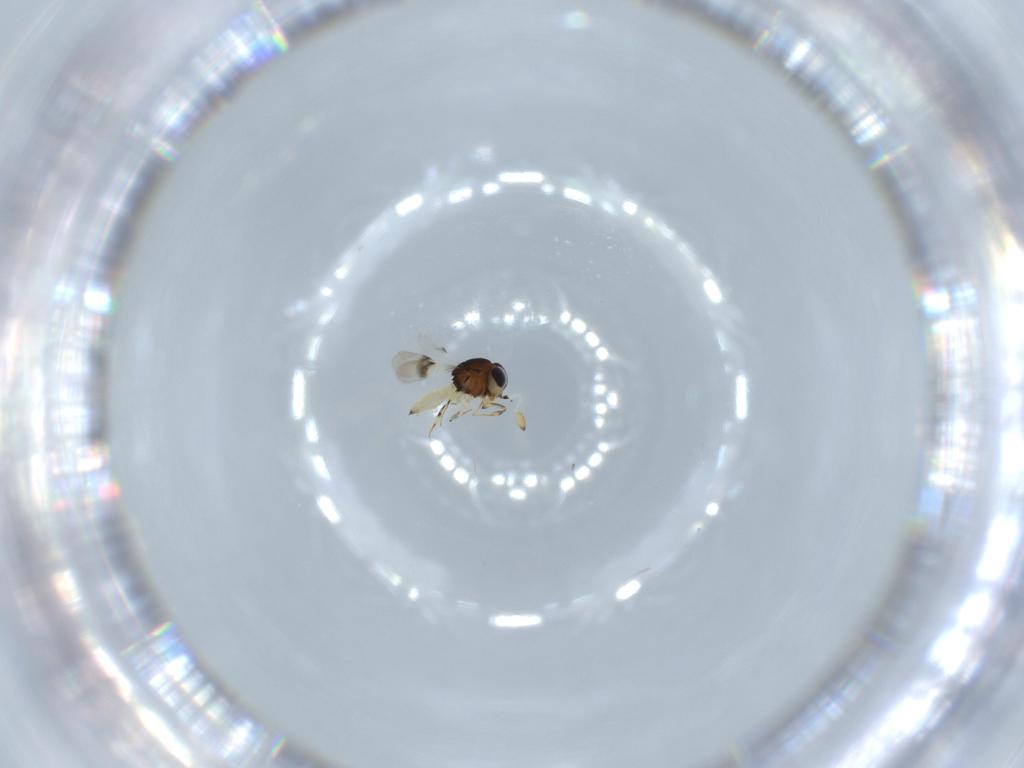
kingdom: Animalia
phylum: Arthropoda
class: Insecta
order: Hymenoptera
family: Scelionidae
